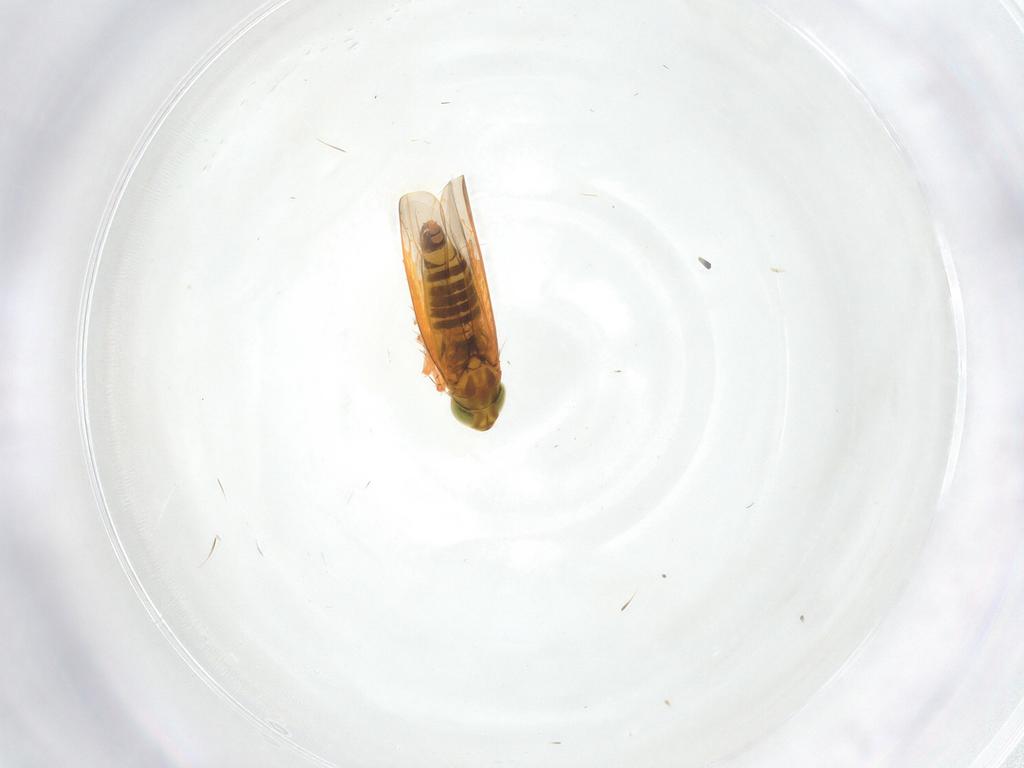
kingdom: Animalia
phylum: Arthropoda
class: Insecta
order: Hemiptera
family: Cicadellidae
